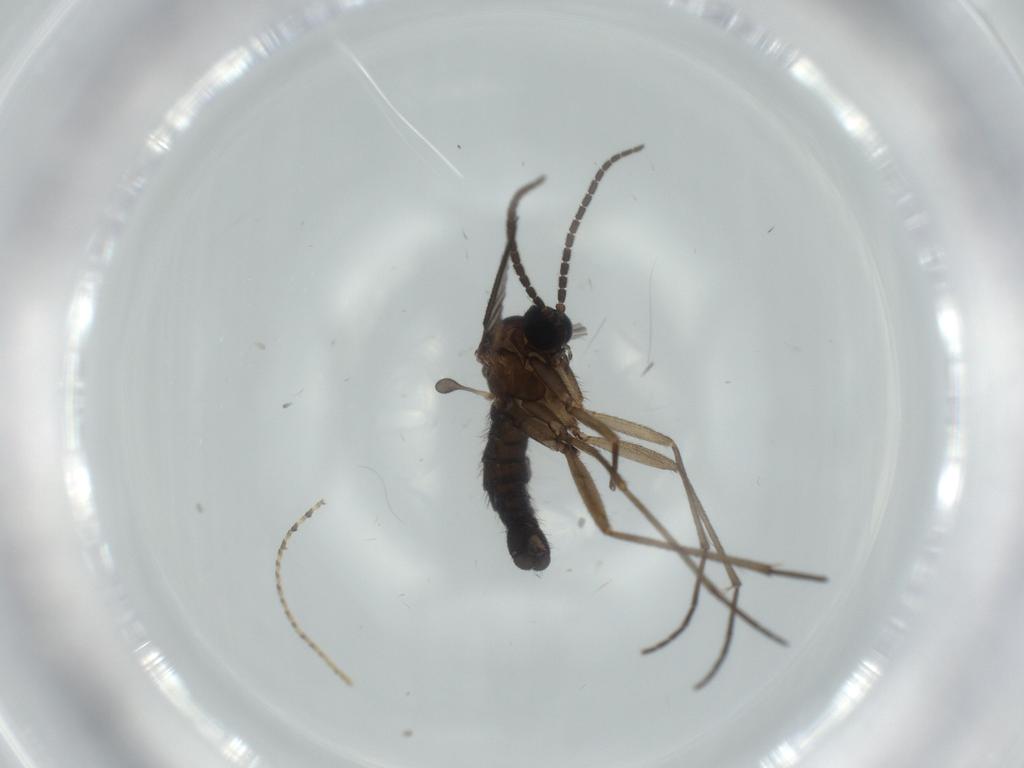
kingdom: Animalia
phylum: Arthropoda
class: Insecta
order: Diptera
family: Sciaridae
